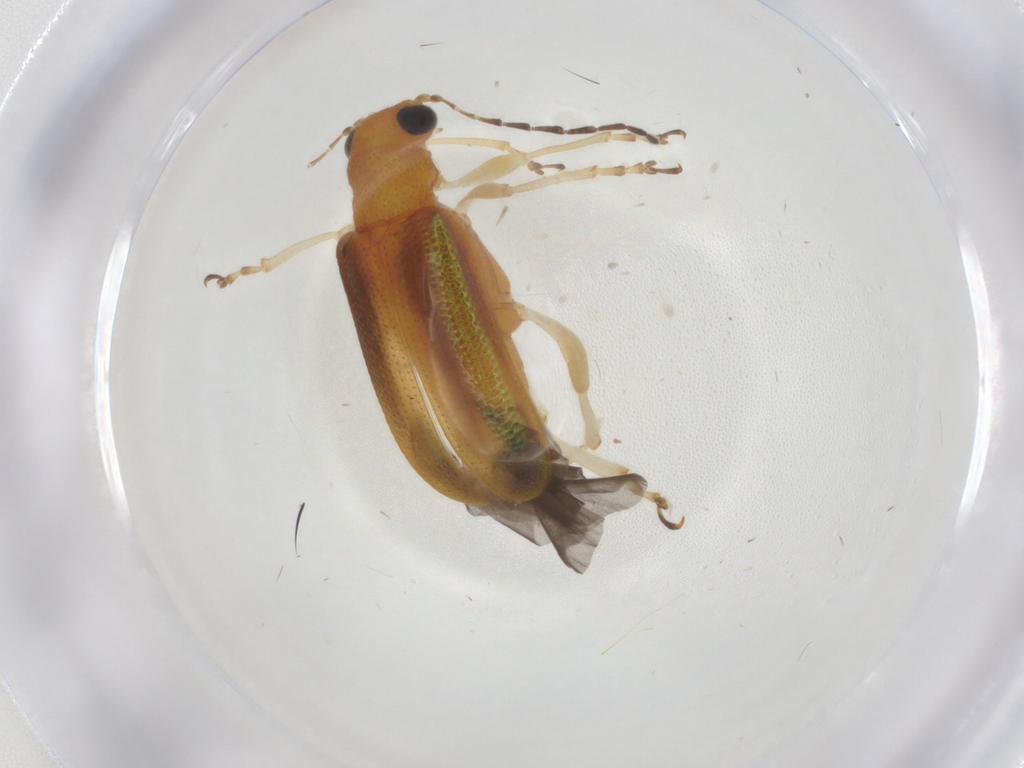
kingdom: Animalia
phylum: Arthropoda
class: Insecta
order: Coleoptera
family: Chrysomelidae
